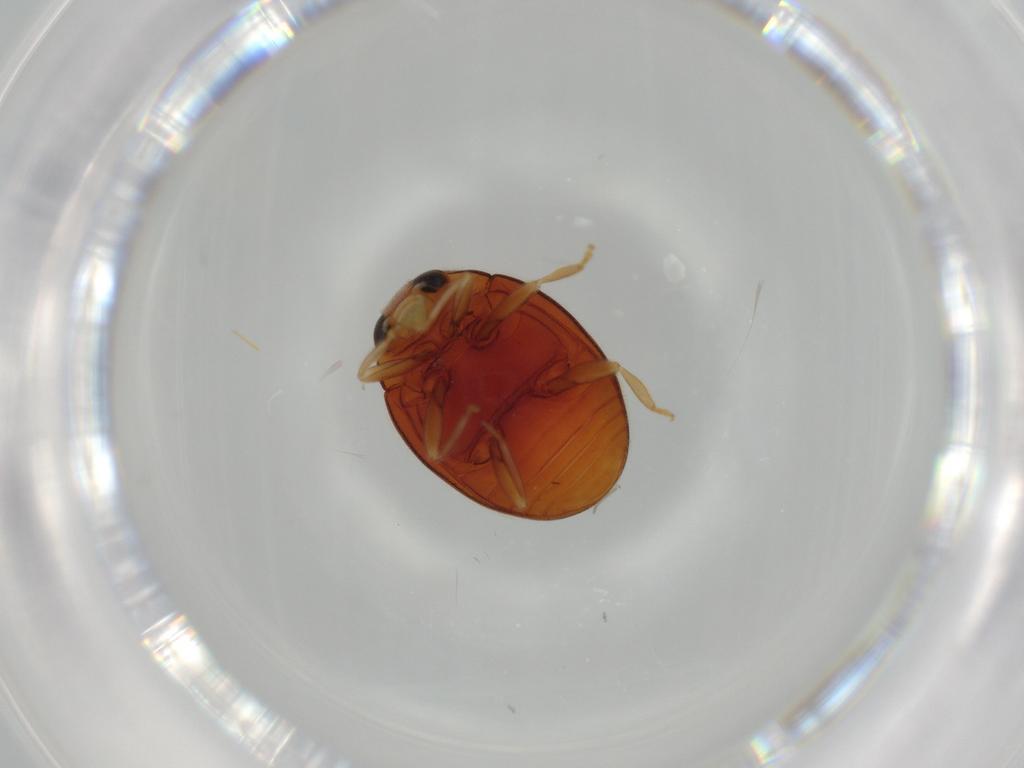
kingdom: Animalia
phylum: Arthropoda
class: Insecta
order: Coleoptera
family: Coccinellidae
